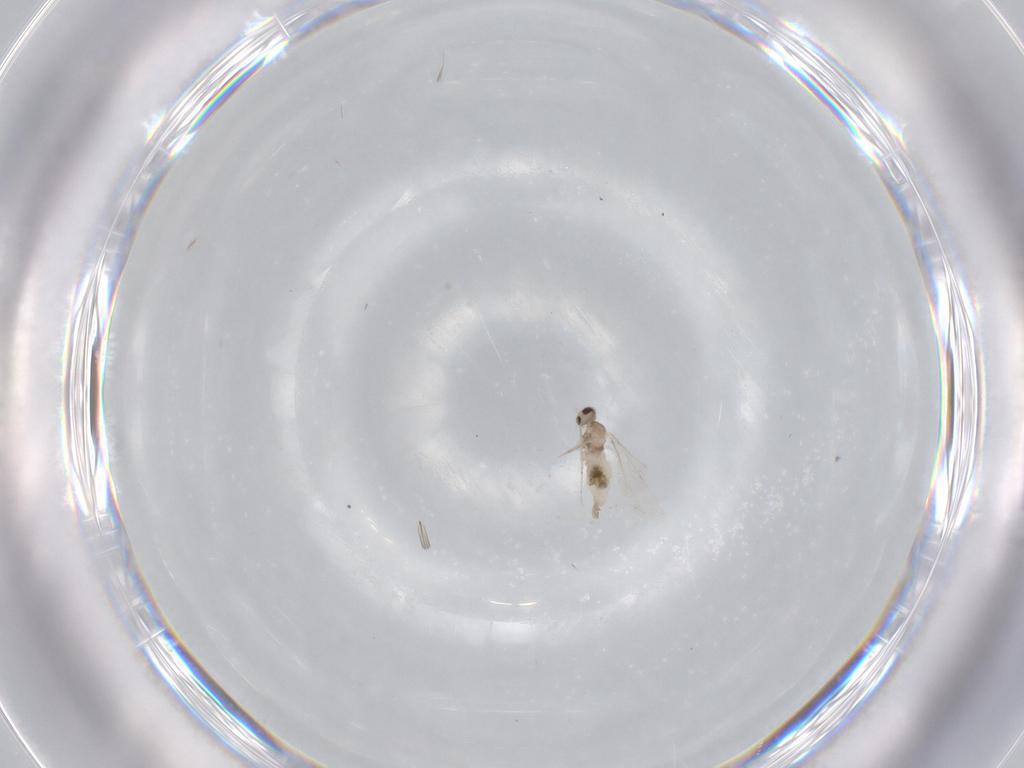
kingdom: Animalia
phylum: Arthropoda
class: Insecta
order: Diptera
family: Cecidomyiidae
